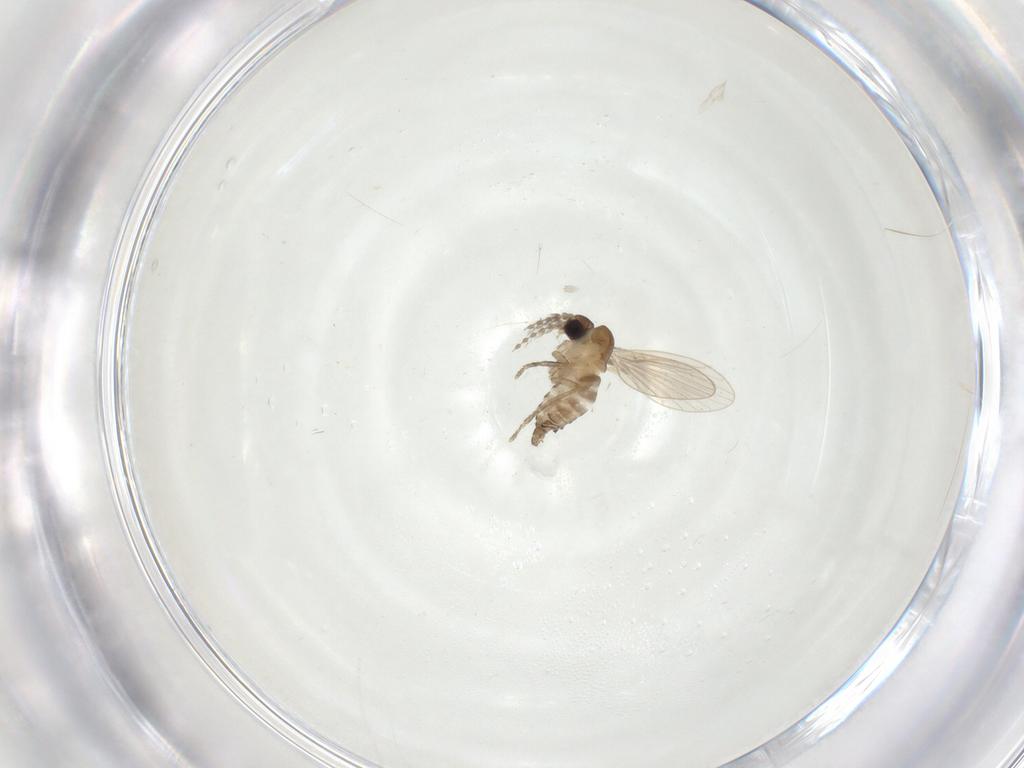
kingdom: Animalia
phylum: Arthropoda
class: Insecta
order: Diptera
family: Psychodidae
